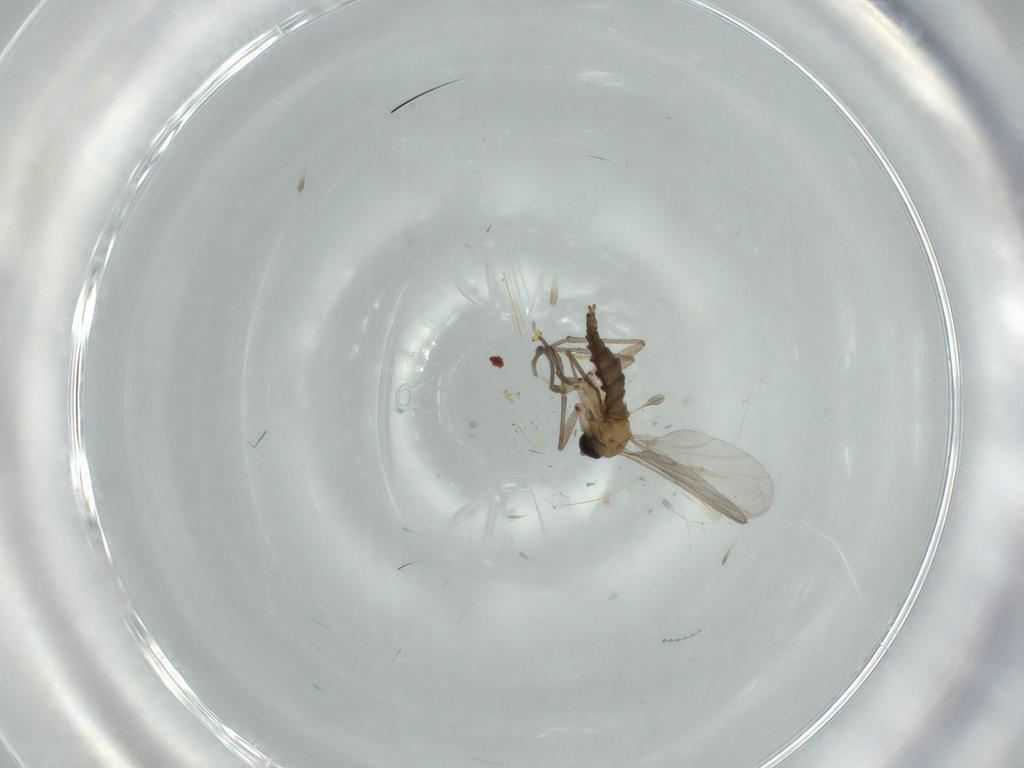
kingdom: Animalia
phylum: Arthropoda
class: Insecta
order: Diptera
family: Sciaridae
